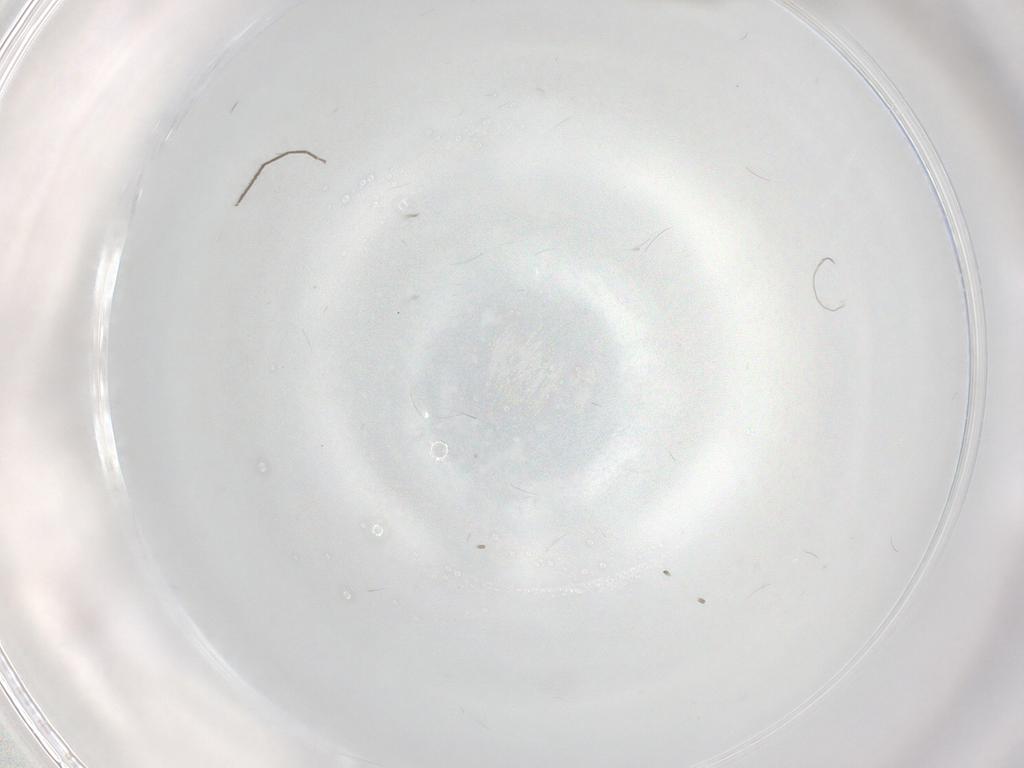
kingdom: Animalia
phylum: Arthropoda
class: Insecta
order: Diptera
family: Chironomidae
